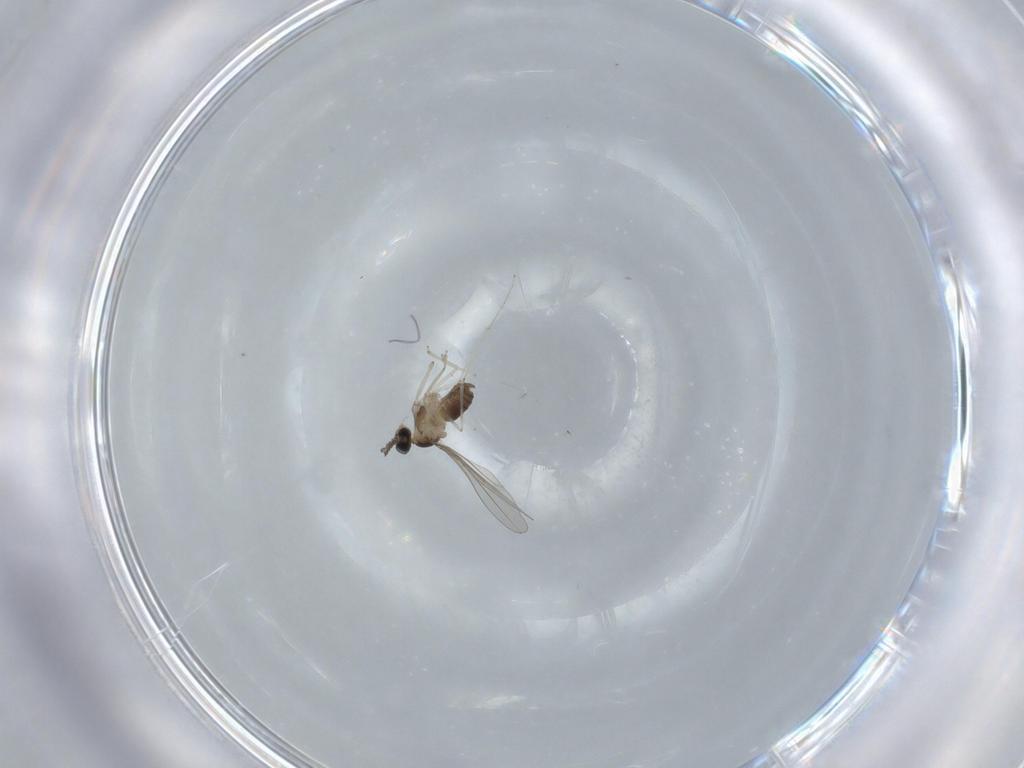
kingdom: Animalia
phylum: Arthropoda
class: Insecta
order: Diptera
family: Cecidomyiidae
